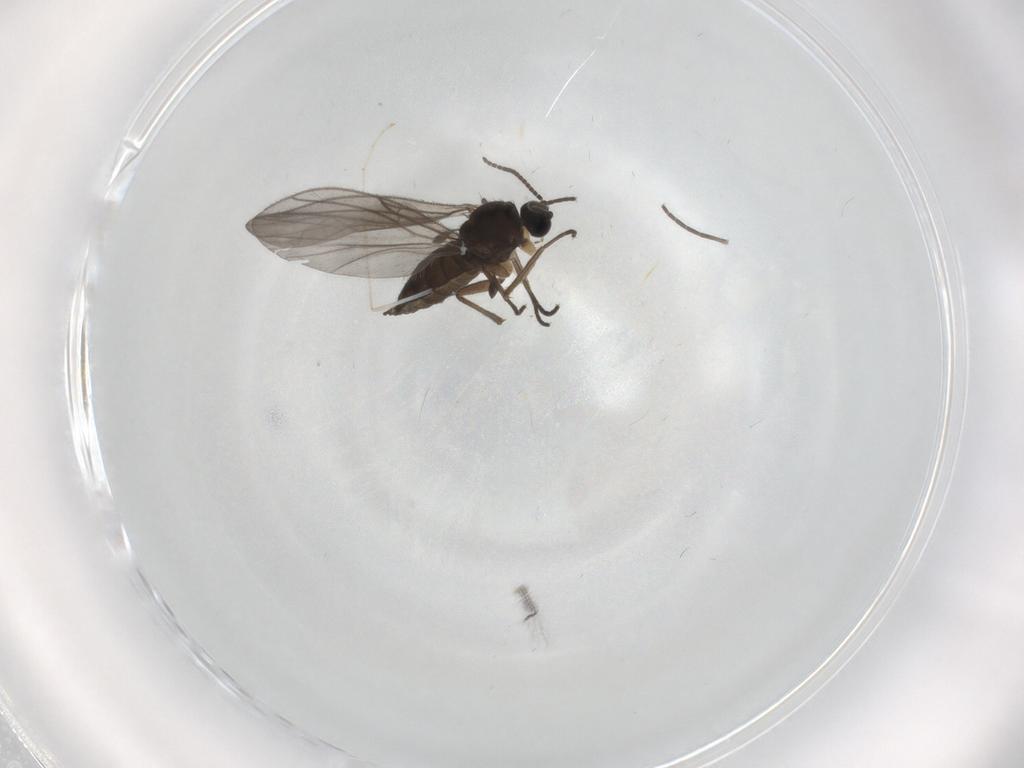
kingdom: Animalia
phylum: Arthropoda
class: Insecta
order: Diptera
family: Sciaridae
